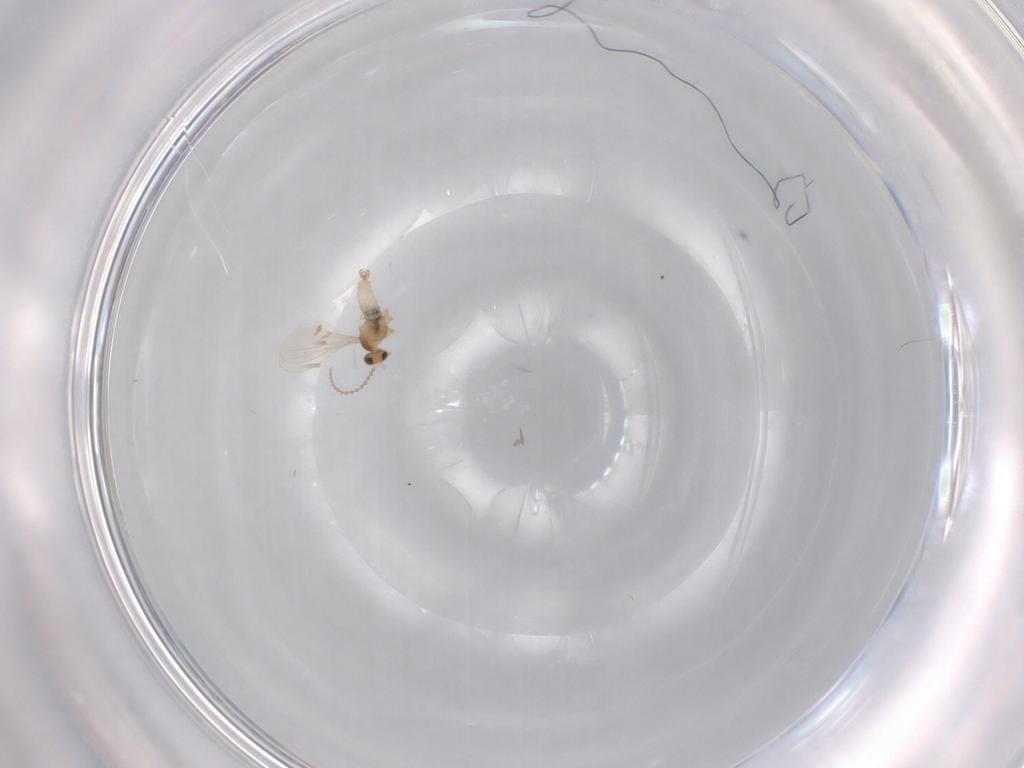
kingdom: Animalia
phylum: Arthropoda
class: Insecta
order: Diptera
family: Cecidomyiidae
